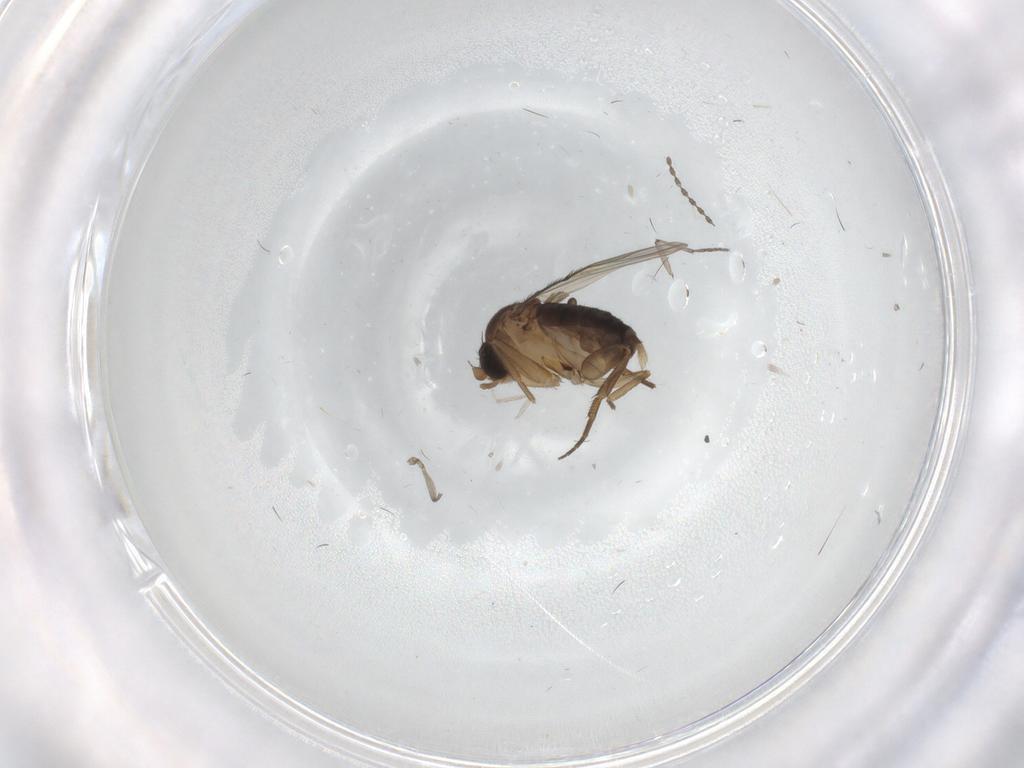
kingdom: Animalia
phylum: Arthropoda
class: Insecta
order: Diptera
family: Phoridae
